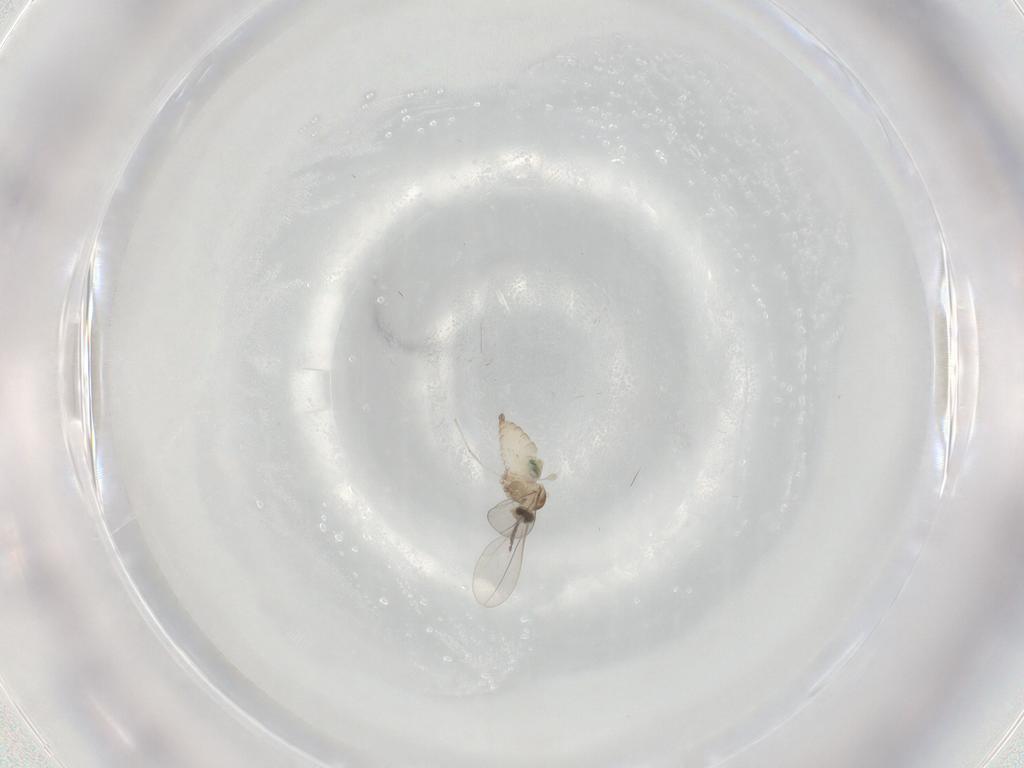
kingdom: Animalia
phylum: Arthropoda
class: Insecta
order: Diptera
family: Cecidomyiidae
